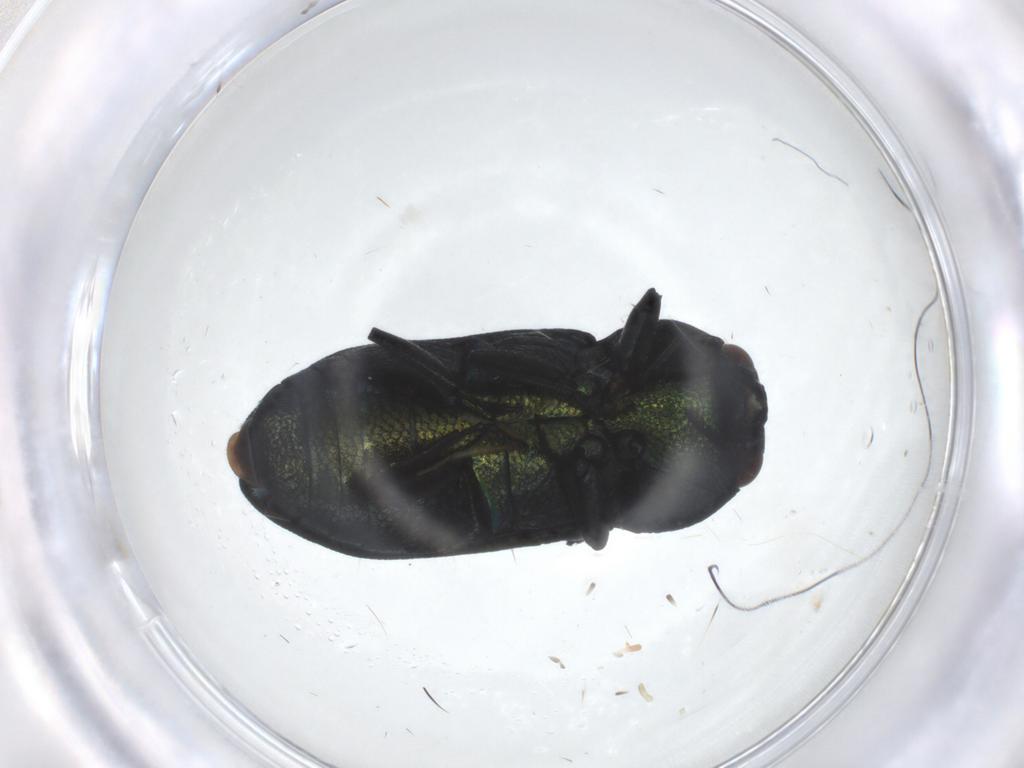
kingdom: Animalia
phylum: Arthropoda
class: Insecta
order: Coleoptera
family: Buprestidae
